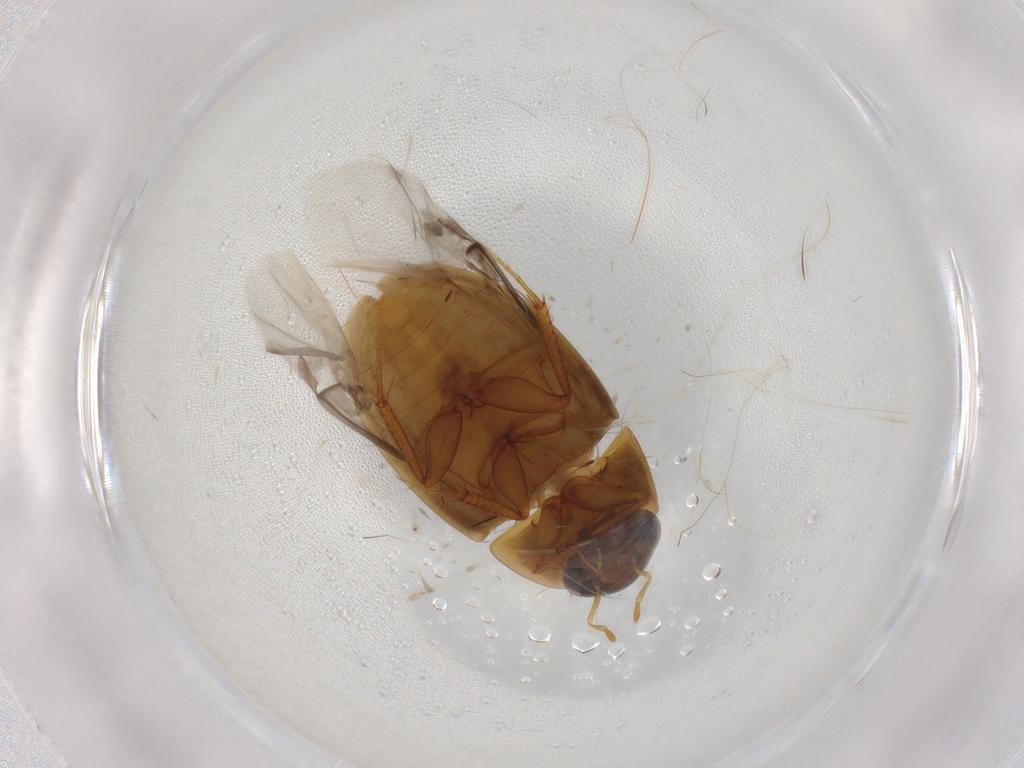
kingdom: Animalia
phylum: Arthropoda
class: Insecta
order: Coleoptera
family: Hydrophilidae
